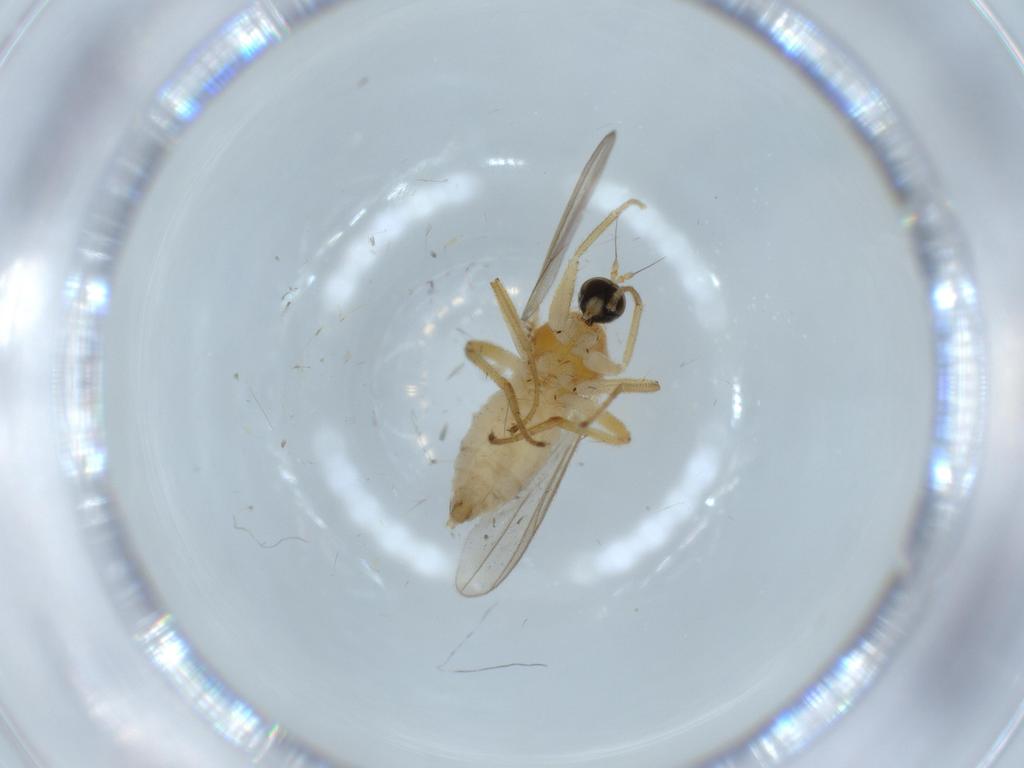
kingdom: Animalia
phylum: Arthropoda
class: Insecta
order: Diptera
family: Hybotidae
